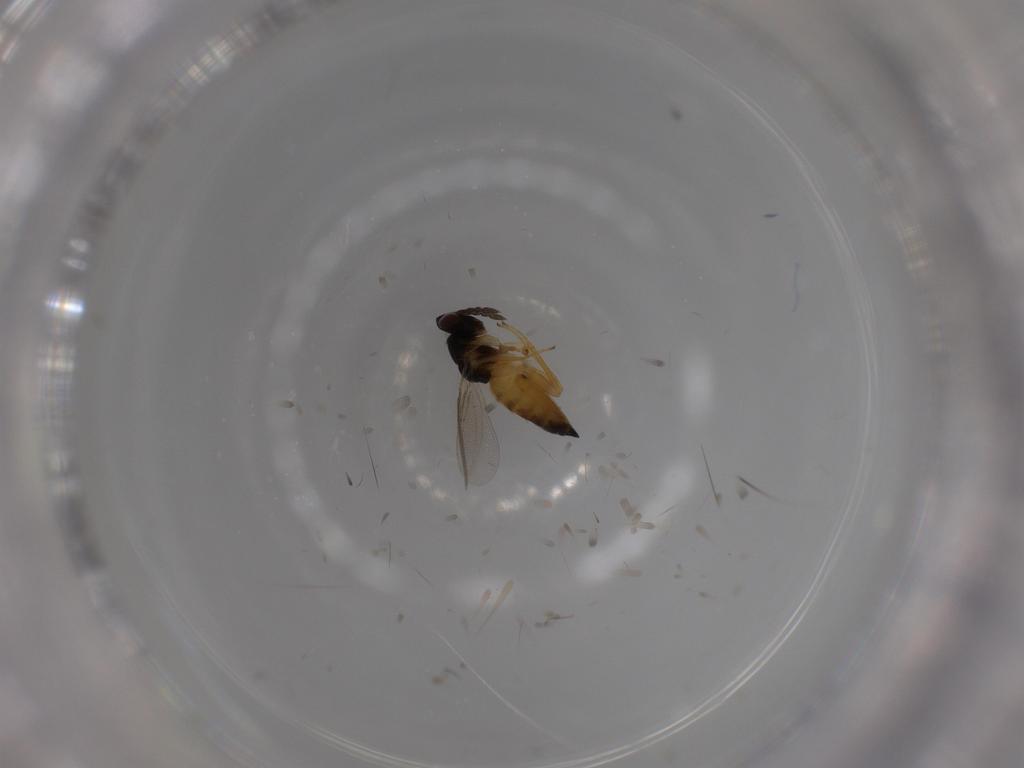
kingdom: Animalia
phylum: Arthropoda
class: Insecta
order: Hymenoptera
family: Eulophidae
